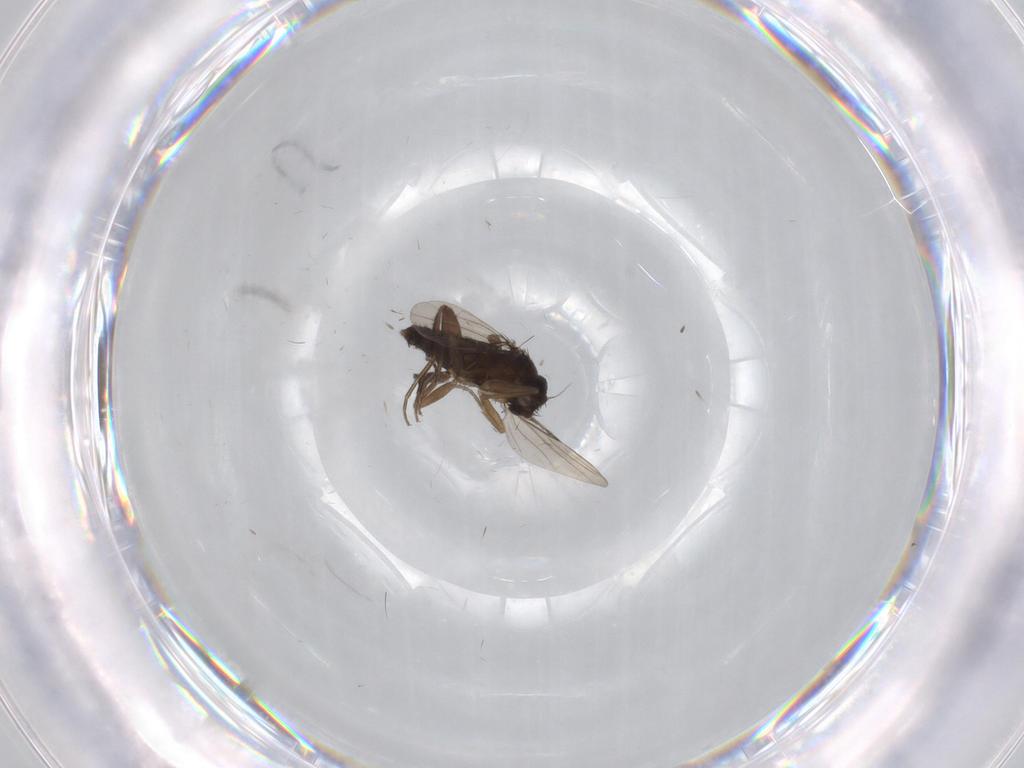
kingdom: Animalia
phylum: Arthropoda
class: Insecta
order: Diptera
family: Phoridae
